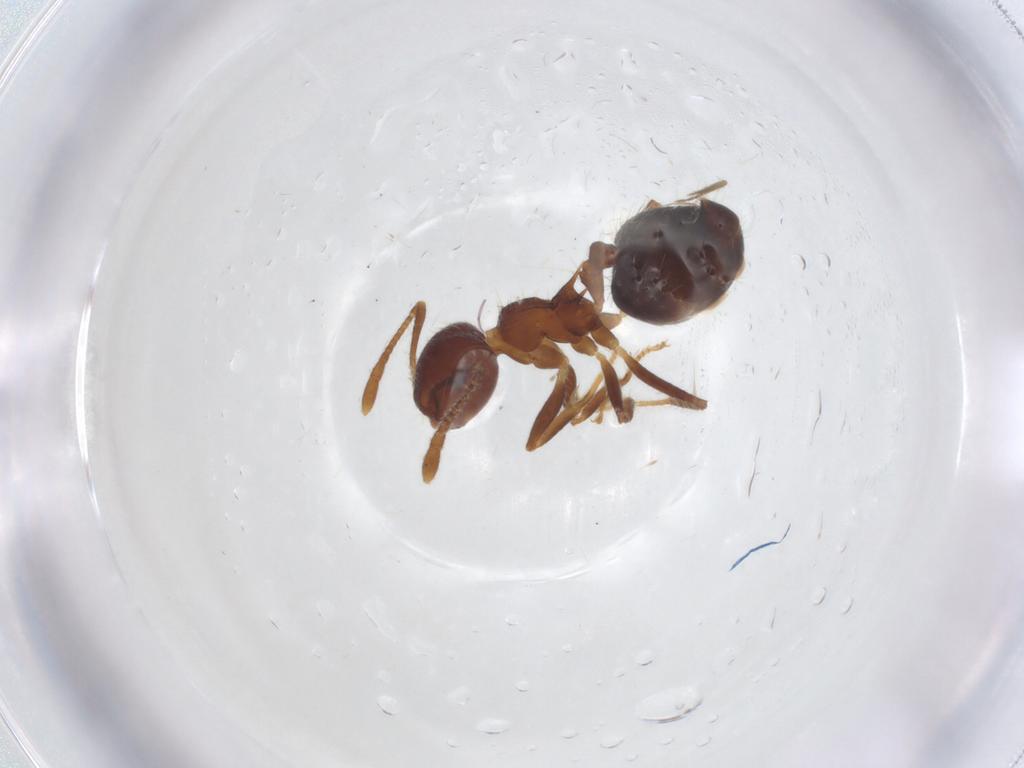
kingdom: Animalia
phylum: Arthropoda
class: Insecta
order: Hymenoptera
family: Formicidae
